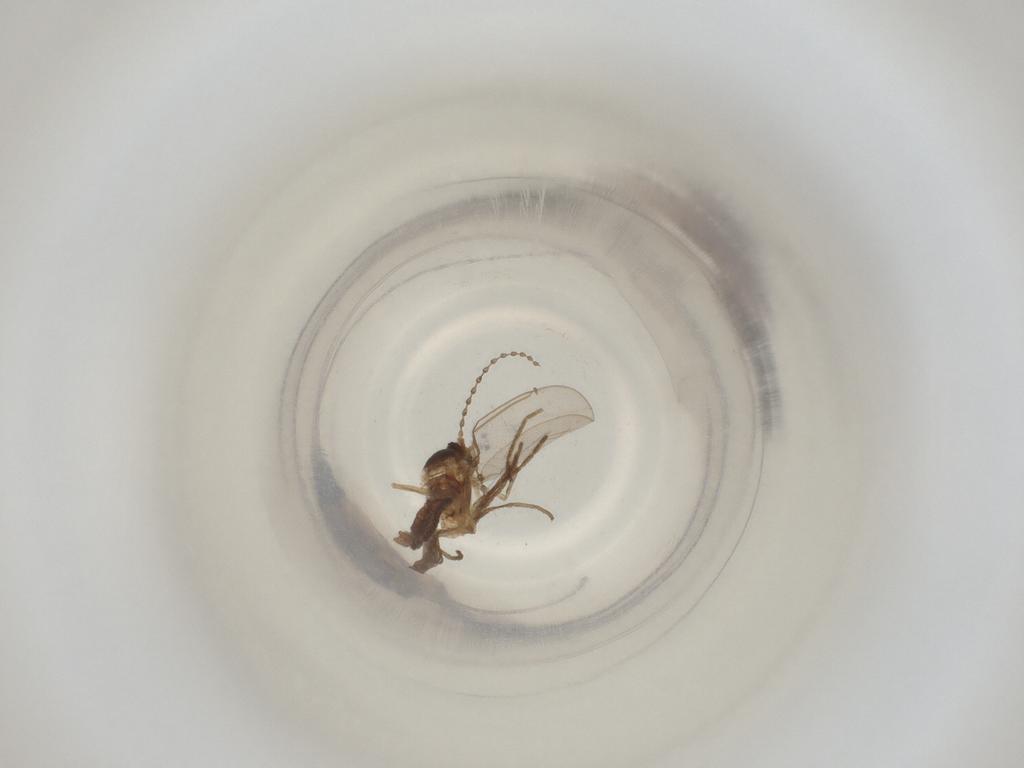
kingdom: Animalia
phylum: Arthropoda
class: Insecta
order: Diptera
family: Cecidomyiidae
